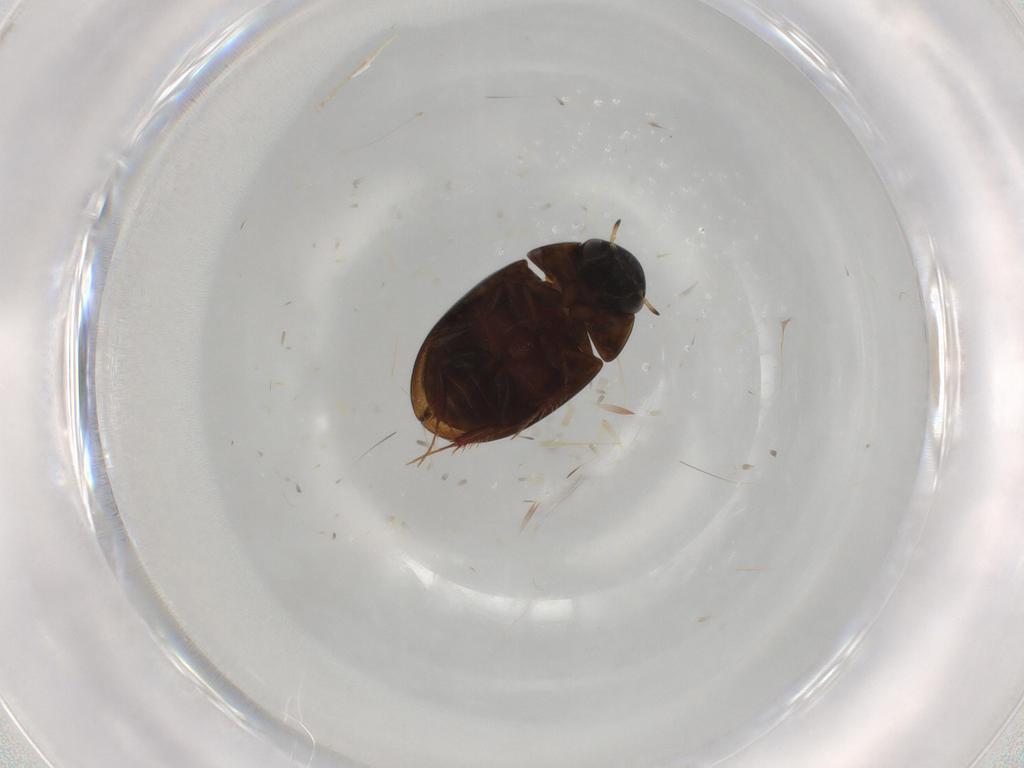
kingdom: Animalia
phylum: Arthropoda
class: Insecta
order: Coleoptera
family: Hydrophilidae
